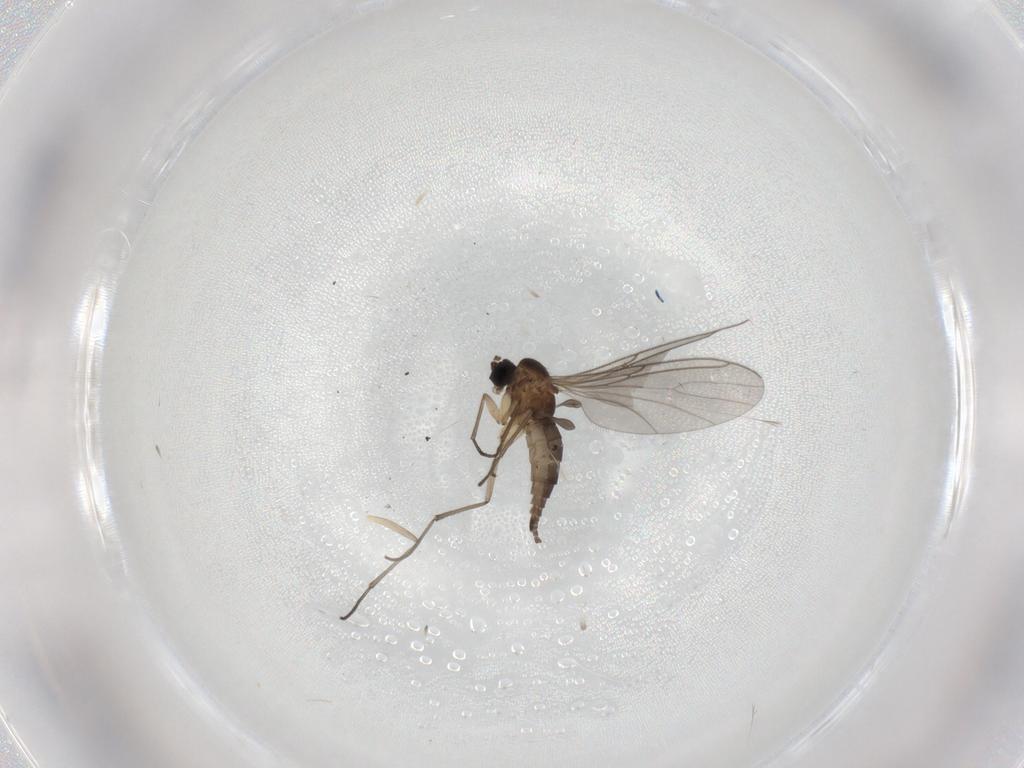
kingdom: Animalia
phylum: Arthropoda
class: Insecta
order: Diptera
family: Sciaridae
